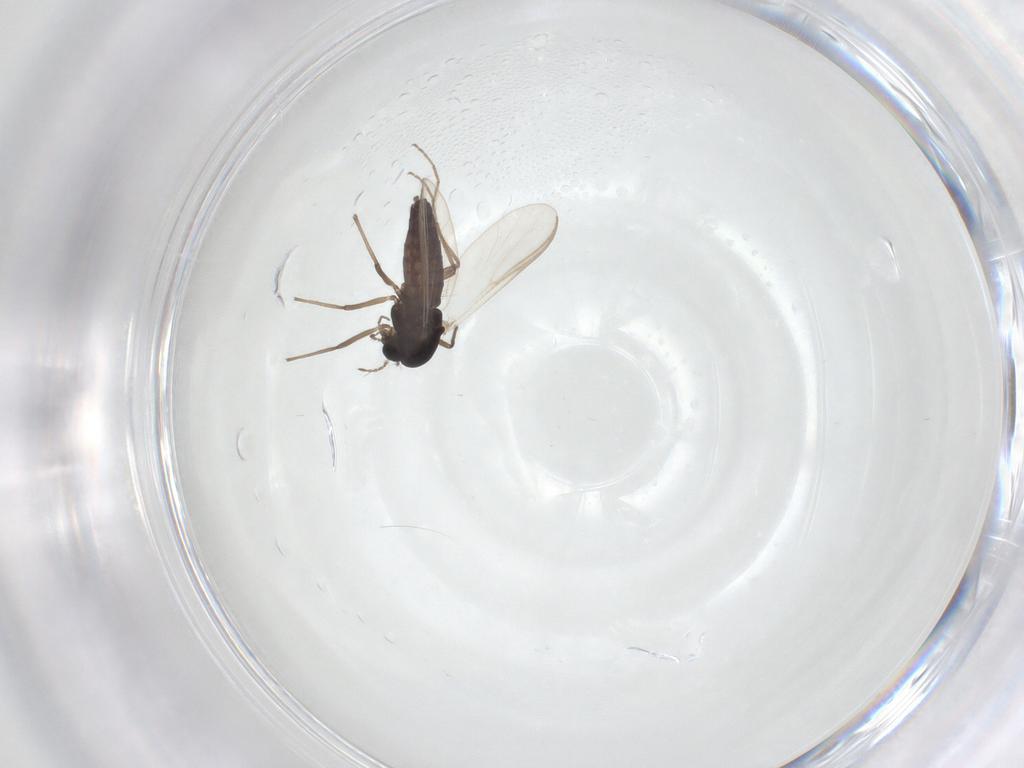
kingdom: Animalia
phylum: Arthropoda
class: Insecta
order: Diptera
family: Chironomidae
